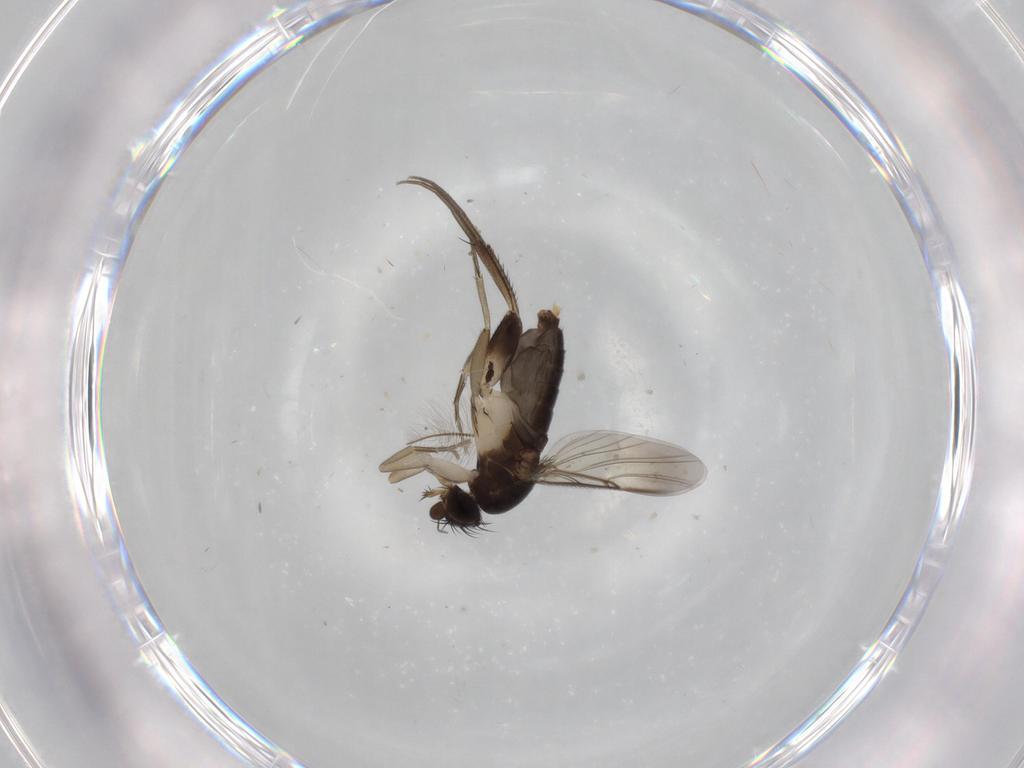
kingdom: Animalia
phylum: Arthropoda
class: Insecta
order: Diptera
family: Phoridae
